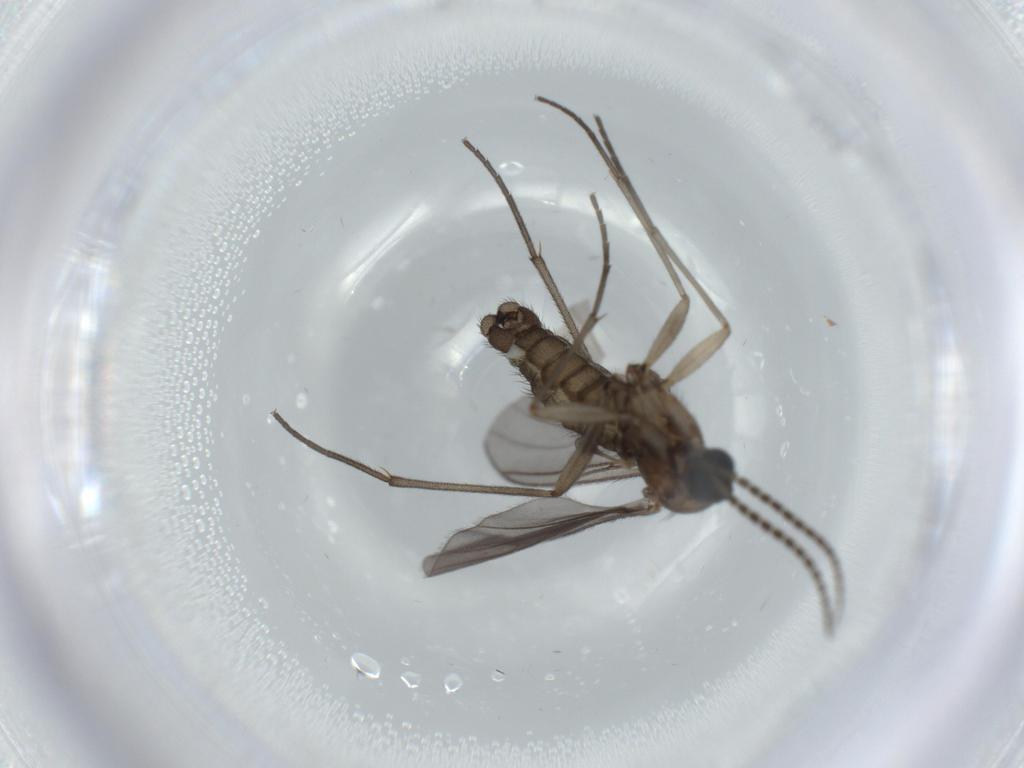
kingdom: Animalia
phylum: Arthropoda
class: Insecta
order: Diptera
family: Sciaridae
